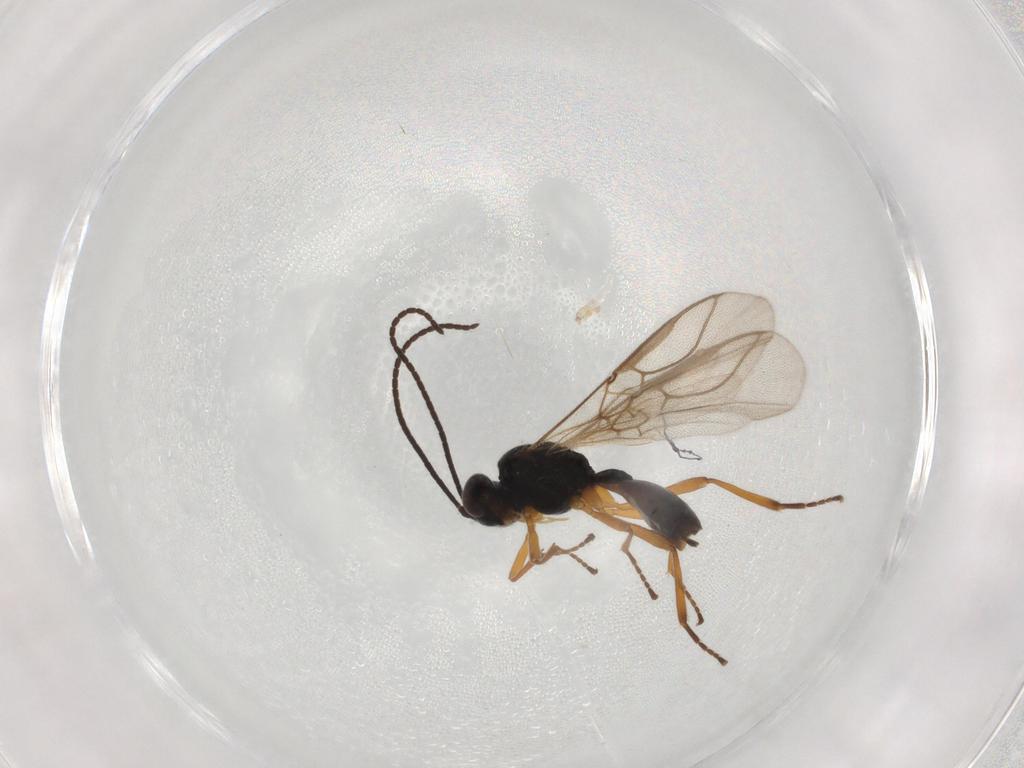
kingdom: Animalia
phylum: Arthropoda
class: Insecta
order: Hymenoptera
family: Braconidae
